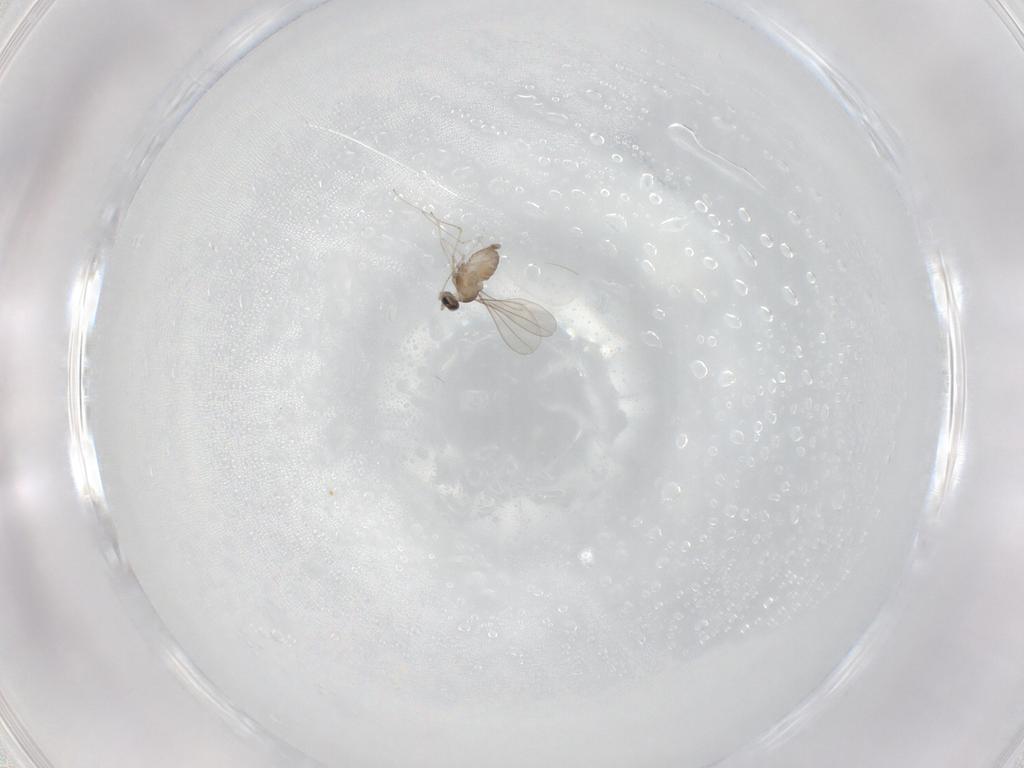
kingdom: Animalia
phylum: Arthropoda
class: Insecta
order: Diptera
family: Cecidomyiidae
